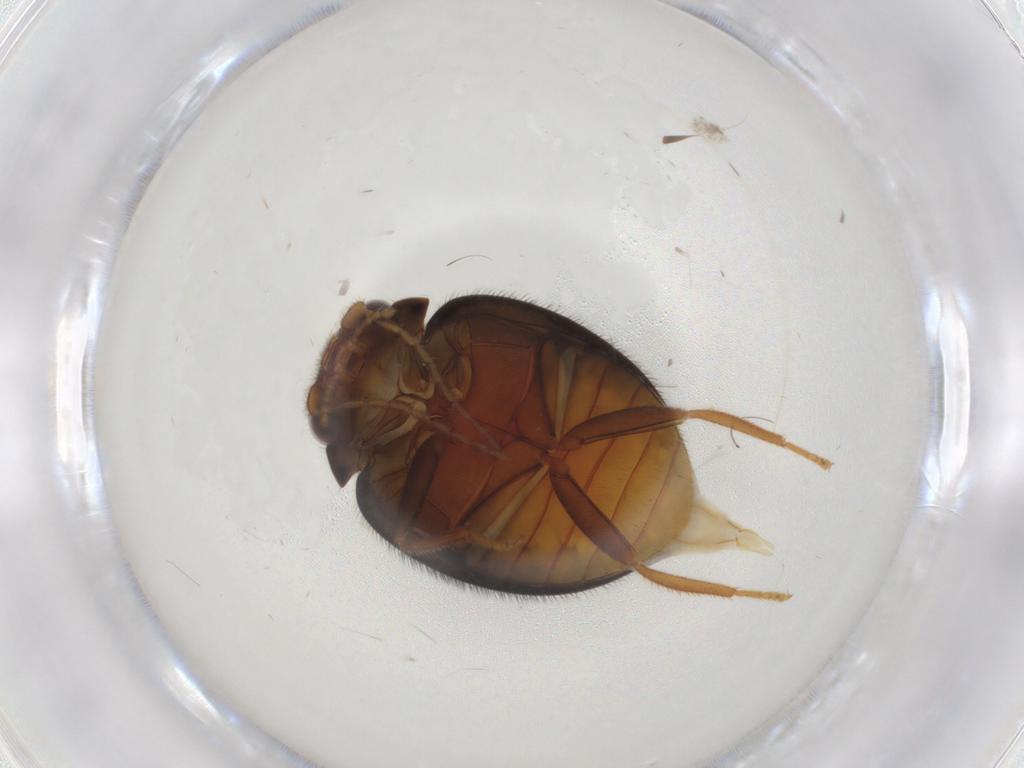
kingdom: Animalia
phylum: Arthropoda
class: Insecta
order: Coleoptera
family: Scirtidae
